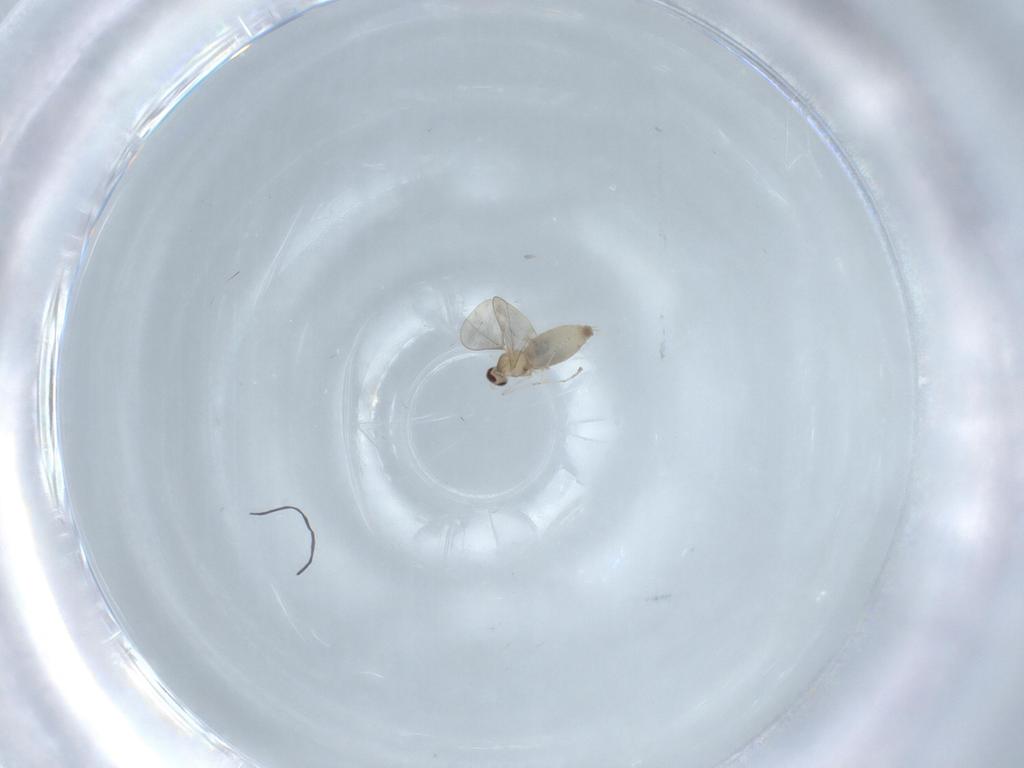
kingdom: Animalia
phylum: Arthropoda
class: Insecta
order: Diptera
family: Cecidomyiidae
